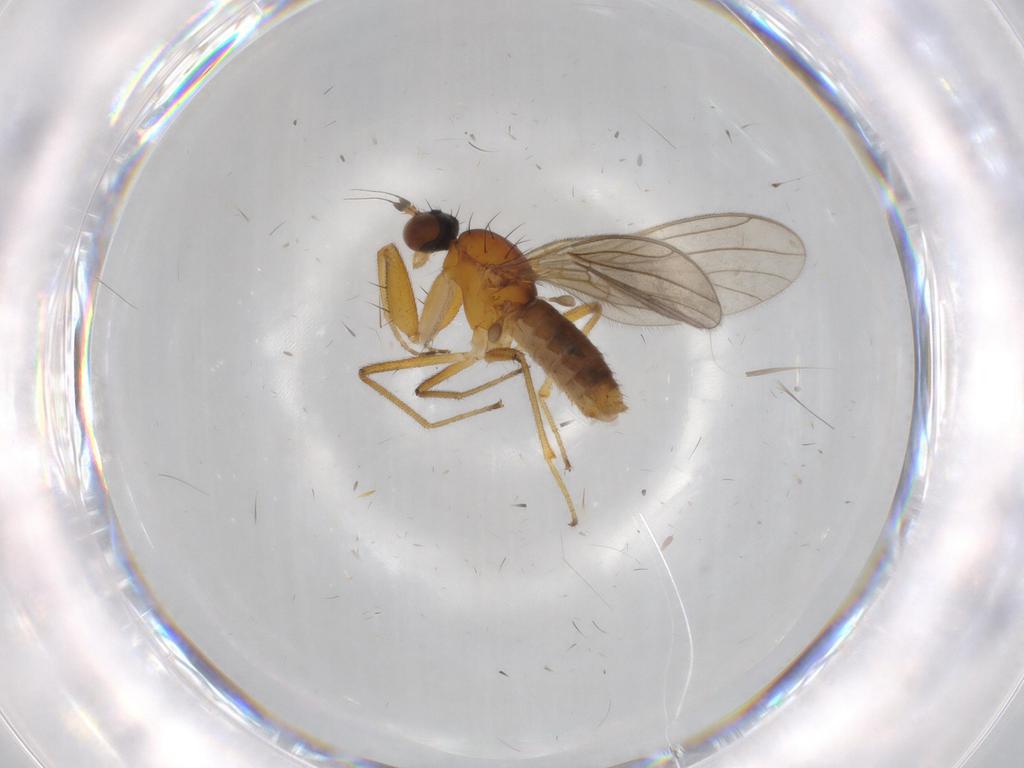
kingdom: Animalia
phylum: Arthropoda
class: Insecta
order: Diptera
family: Empididae
